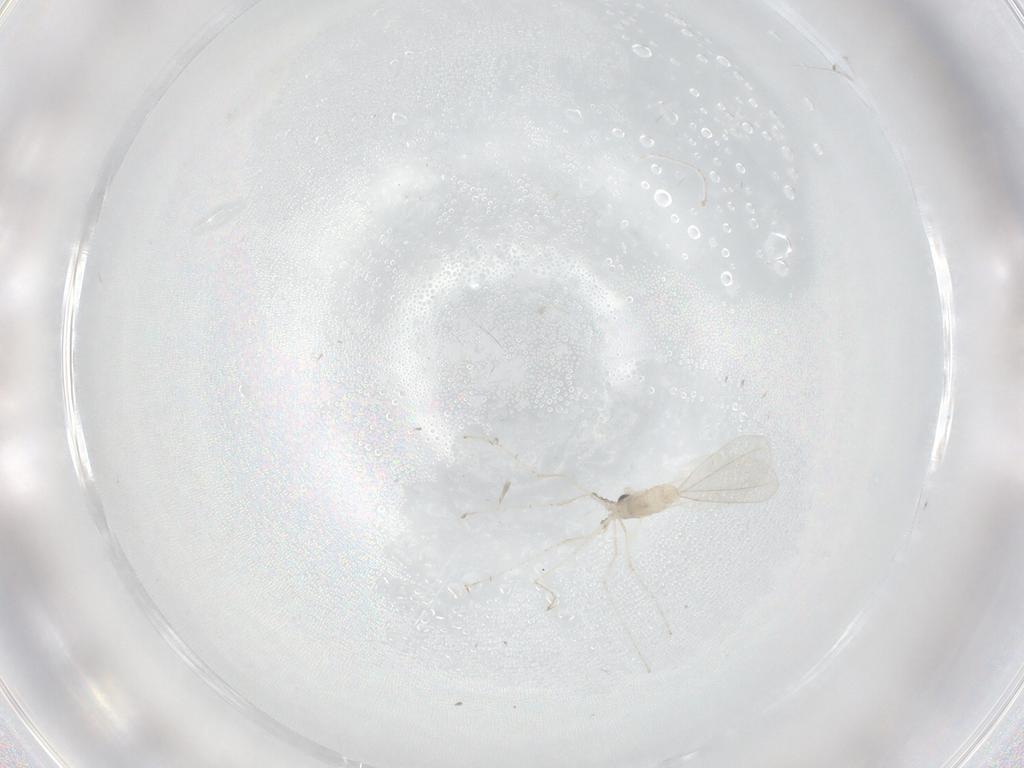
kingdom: Animalia
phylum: Arthropoda
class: Insecta
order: Diptera
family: Cecidomyiidae
